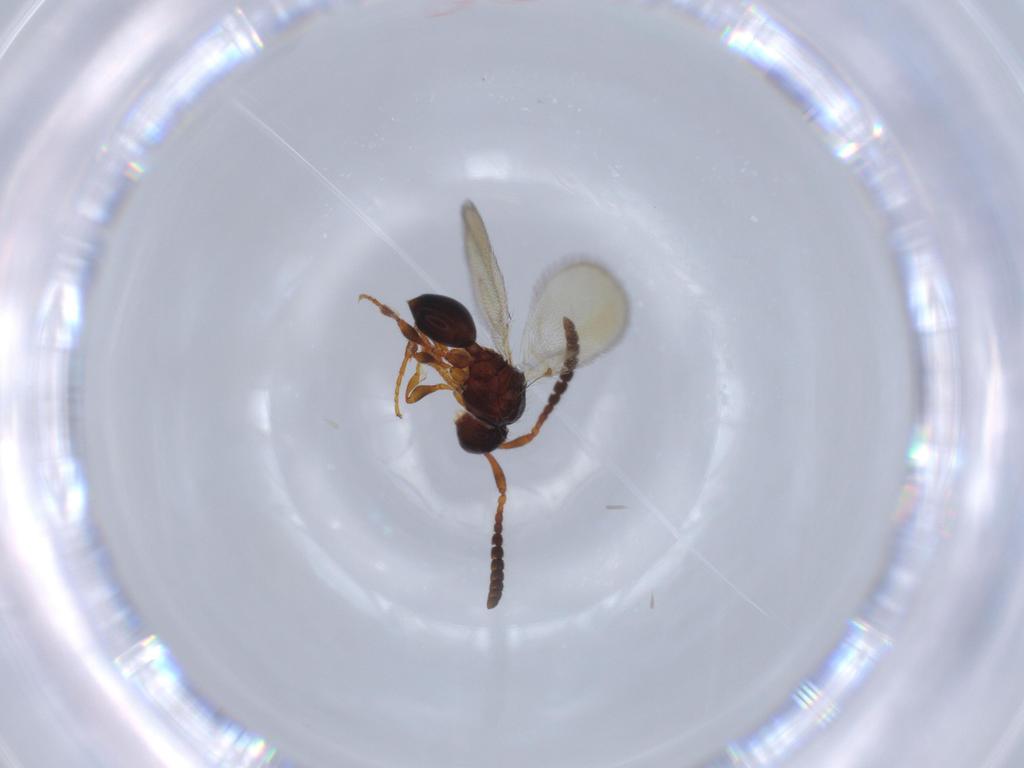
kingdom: Animalia
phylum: Arthropoda
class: Insecta
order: Hymenoptera
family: Diapriidae
